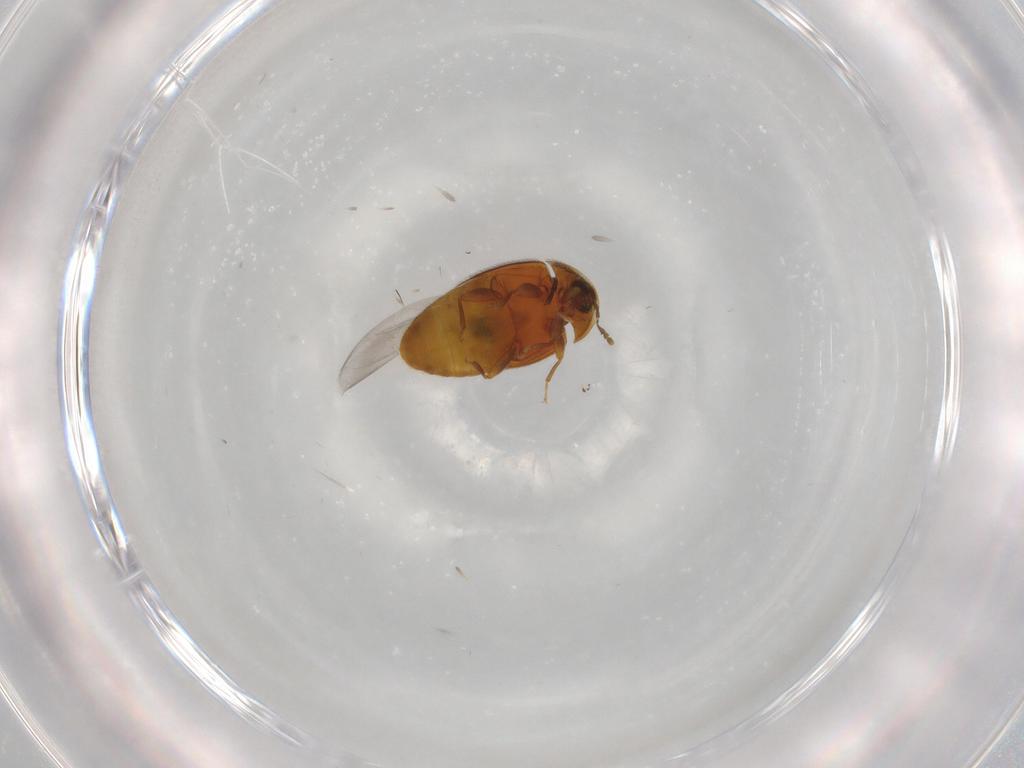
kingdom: Animalia
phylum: Arthropoda
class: Insecta
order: Coleoptera
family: Corylophidae
